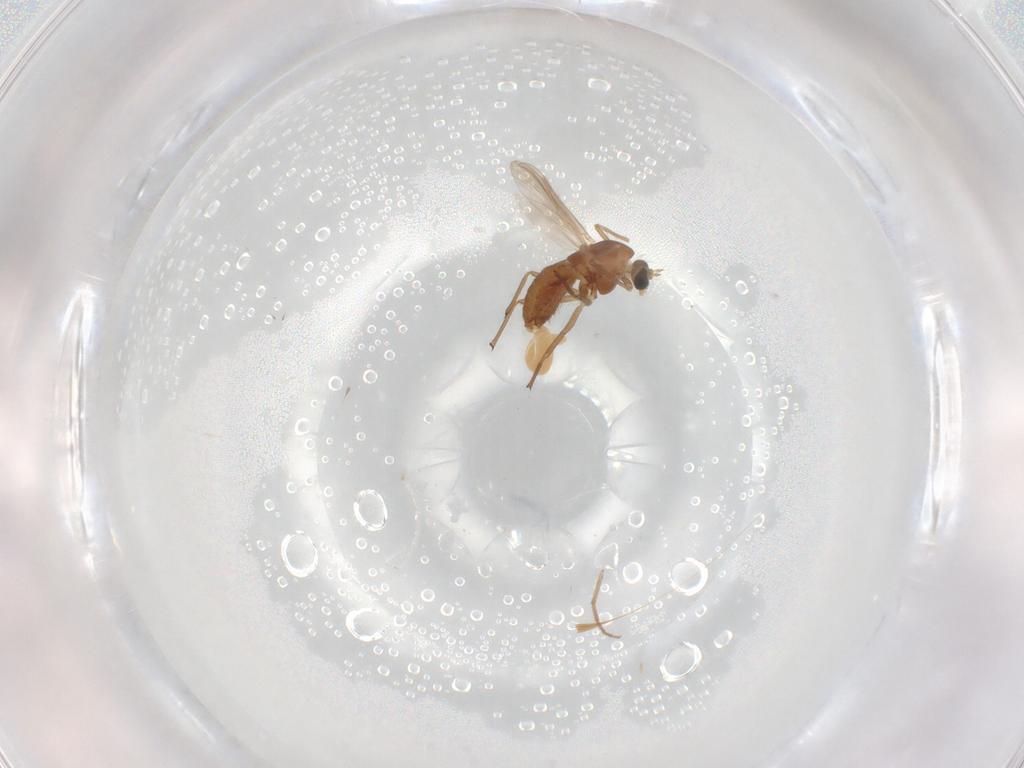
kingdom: Animalia
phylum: Arthropoda
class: Insecta
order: Diptera
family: Chironomidae
